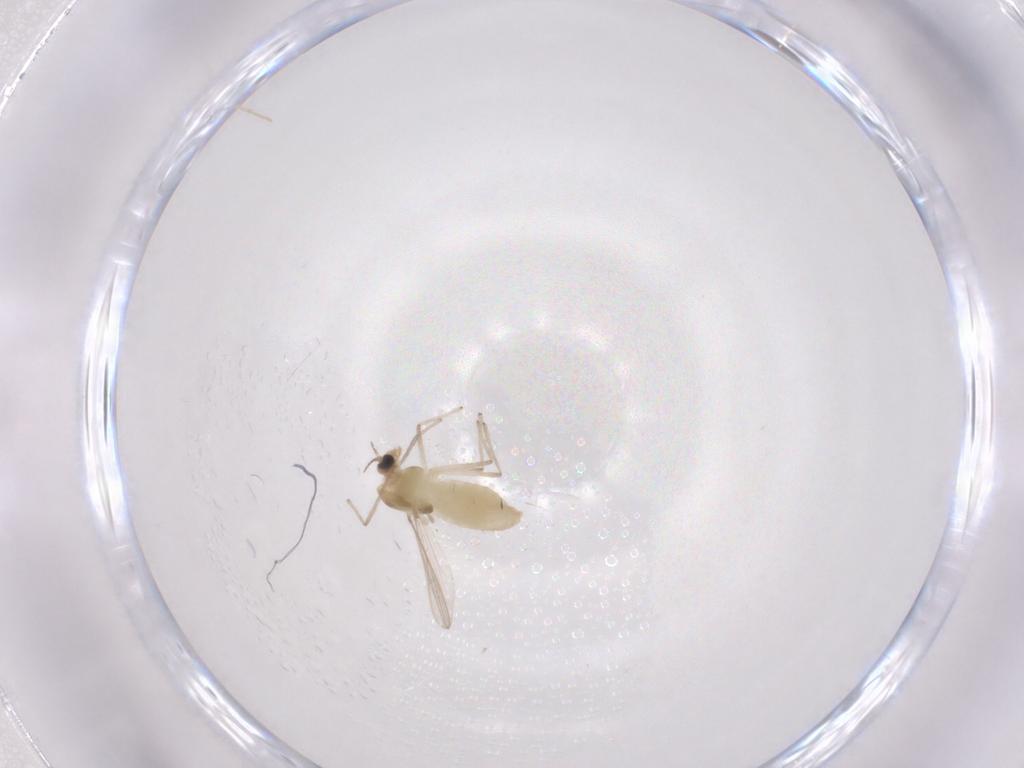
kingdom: Animalia
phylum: Arthropoda
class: Insecta
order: Diptera
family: Chironomidae
